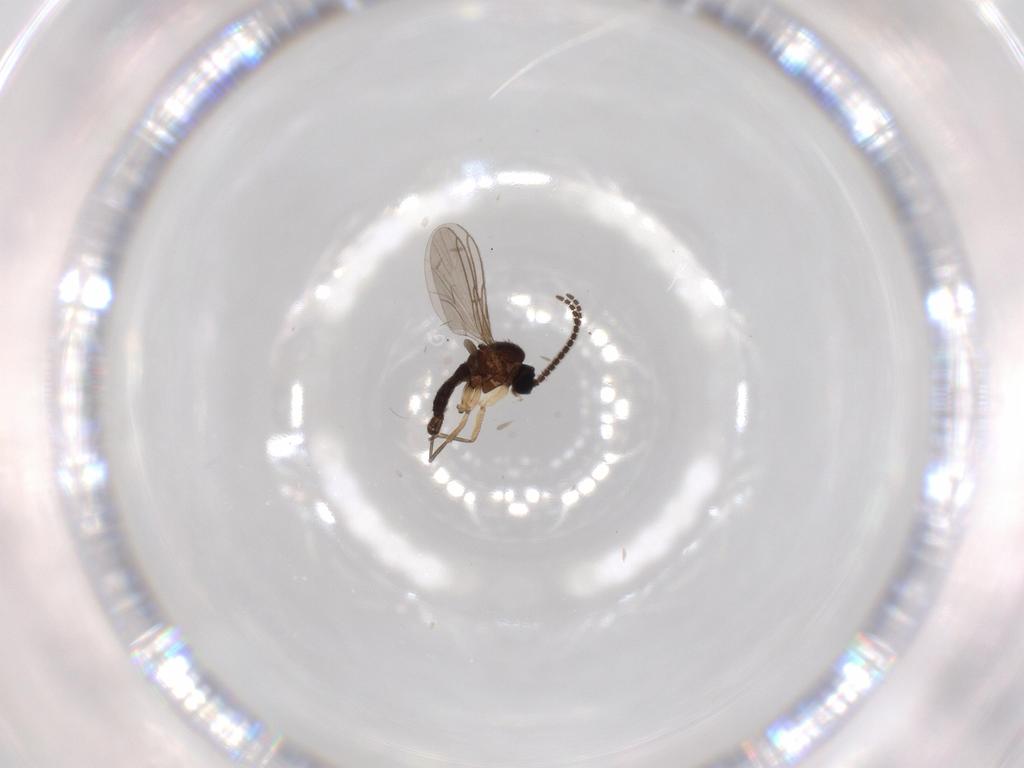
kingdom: Animalia
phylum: Arthropoda
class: Insecta
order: Diptera
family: Sciaridae
